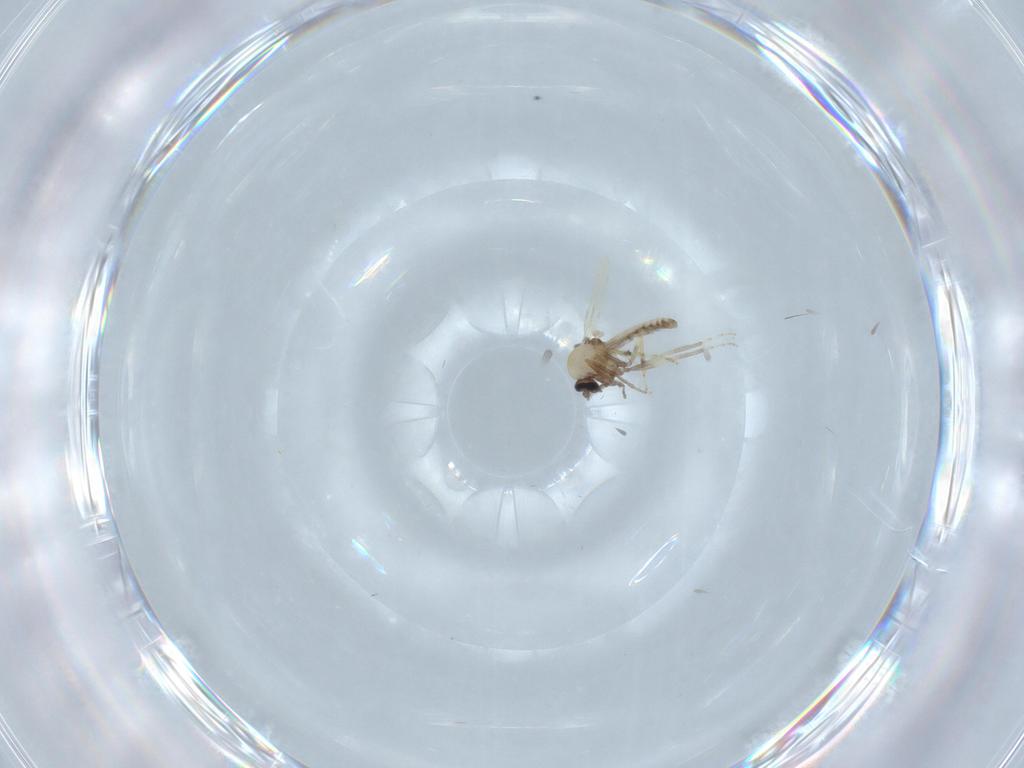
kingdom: Animalia
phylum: Arthropoda
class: Insecta
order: Diptera
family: Ceratopogonidae
